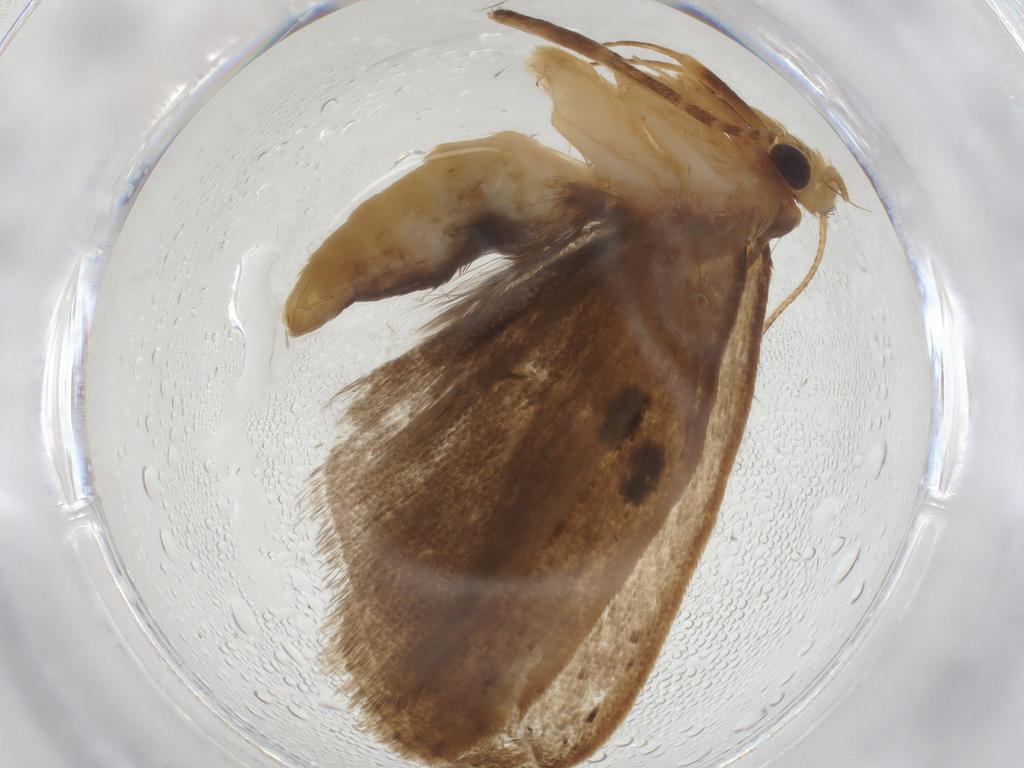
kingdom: Animalia
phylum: Arthropoda
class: Insecta
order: Lepidoptera
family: Depressariidae
